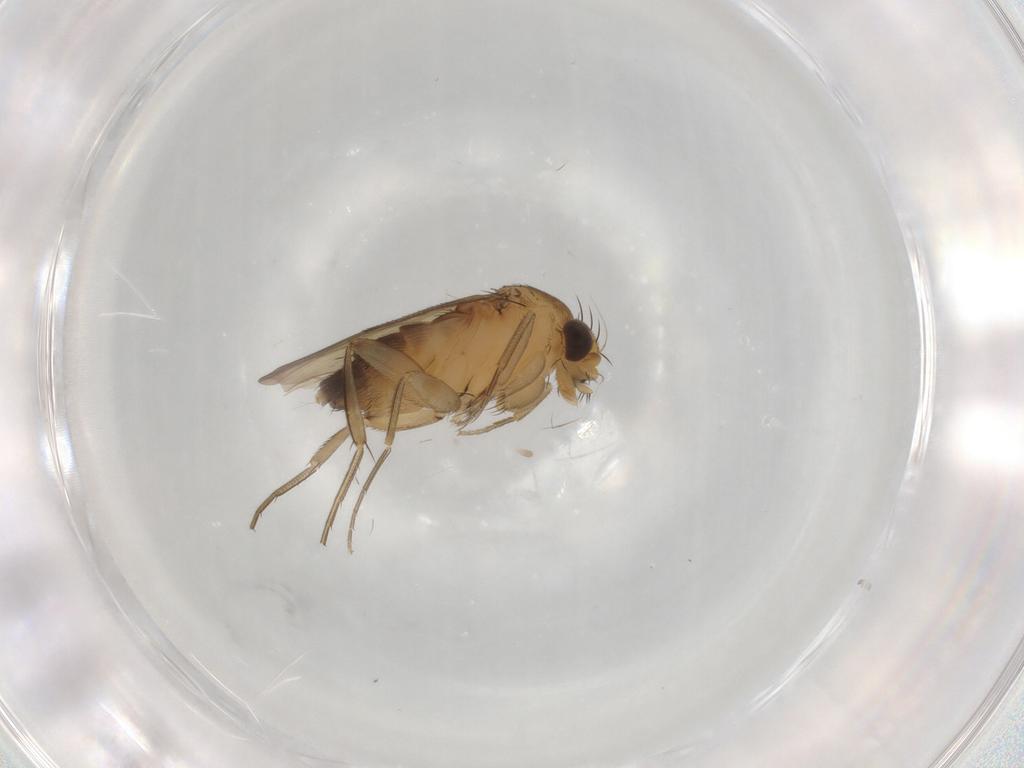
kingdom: Animalia
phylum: Arthropoda
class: Insecta
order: Diptera
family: Phoridae
